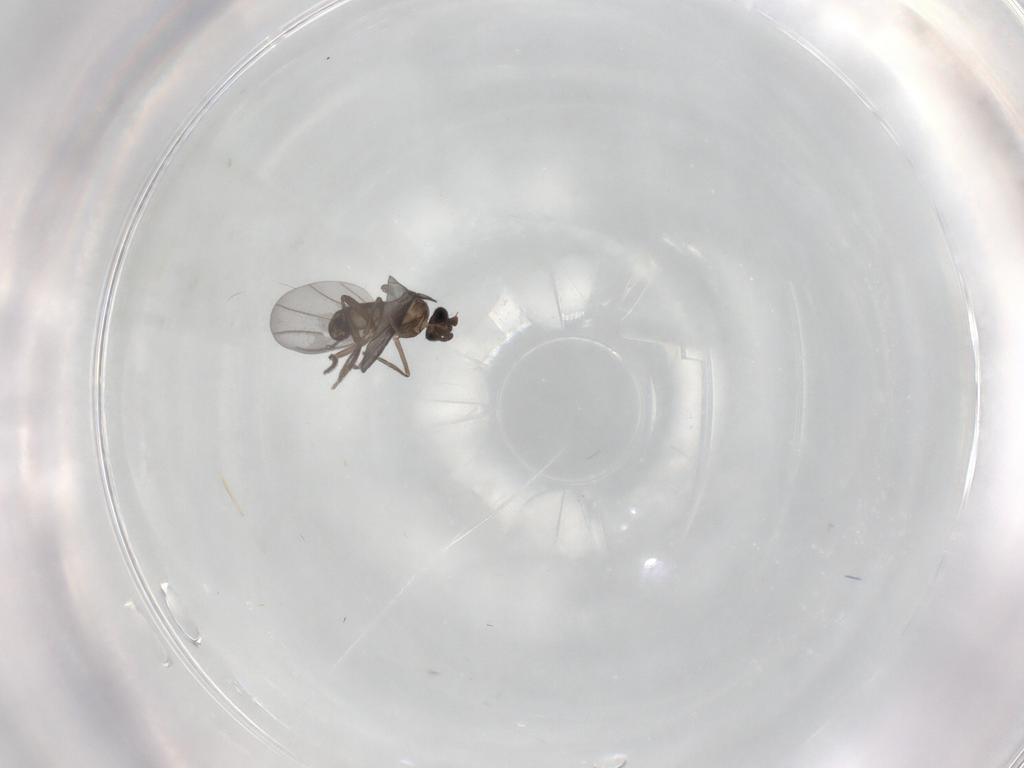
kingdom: Animalia
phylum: Arthropoda
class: Insecta
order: Diptera
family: Phoridae
